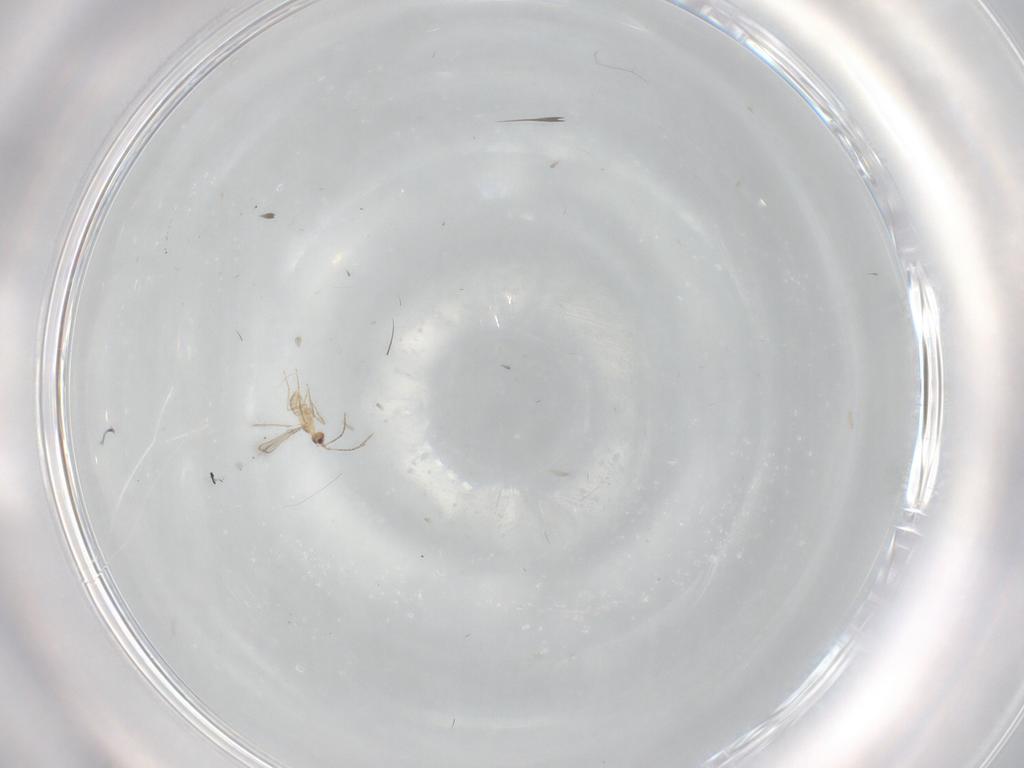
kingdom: Animalia
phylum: Arthropoda
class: Insecta
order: Hymenoptera
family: Mymaridae
